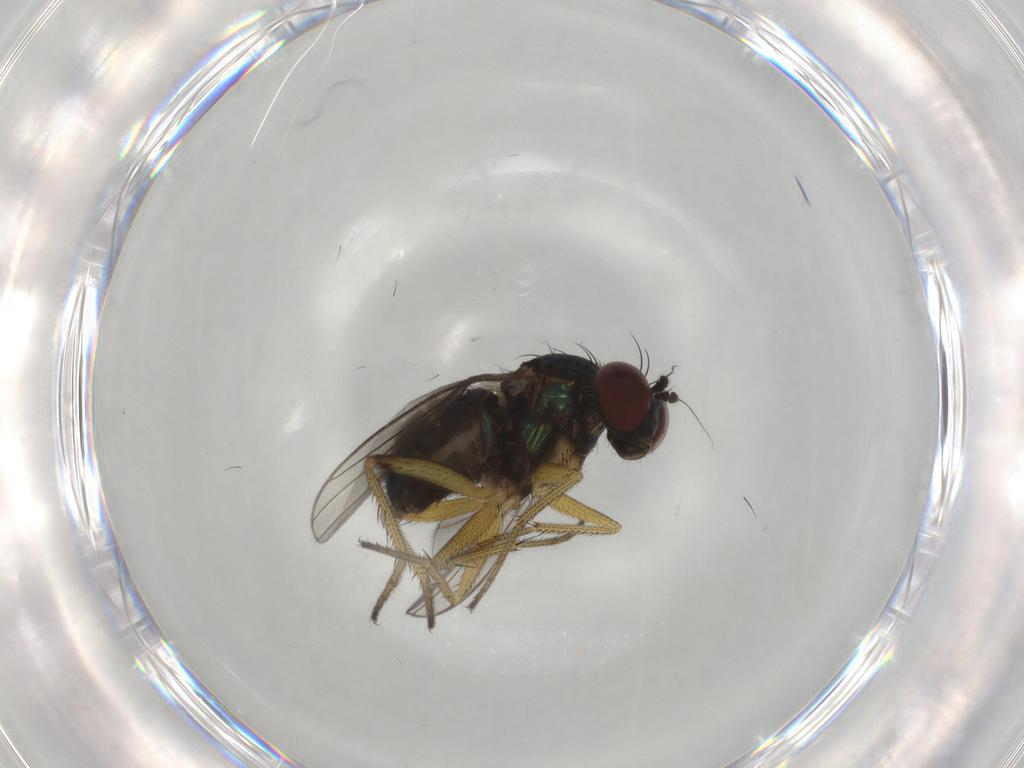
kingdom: Animalia
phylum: Arthropoda
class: Insecta
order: Diptera
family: Dolichopodidae
